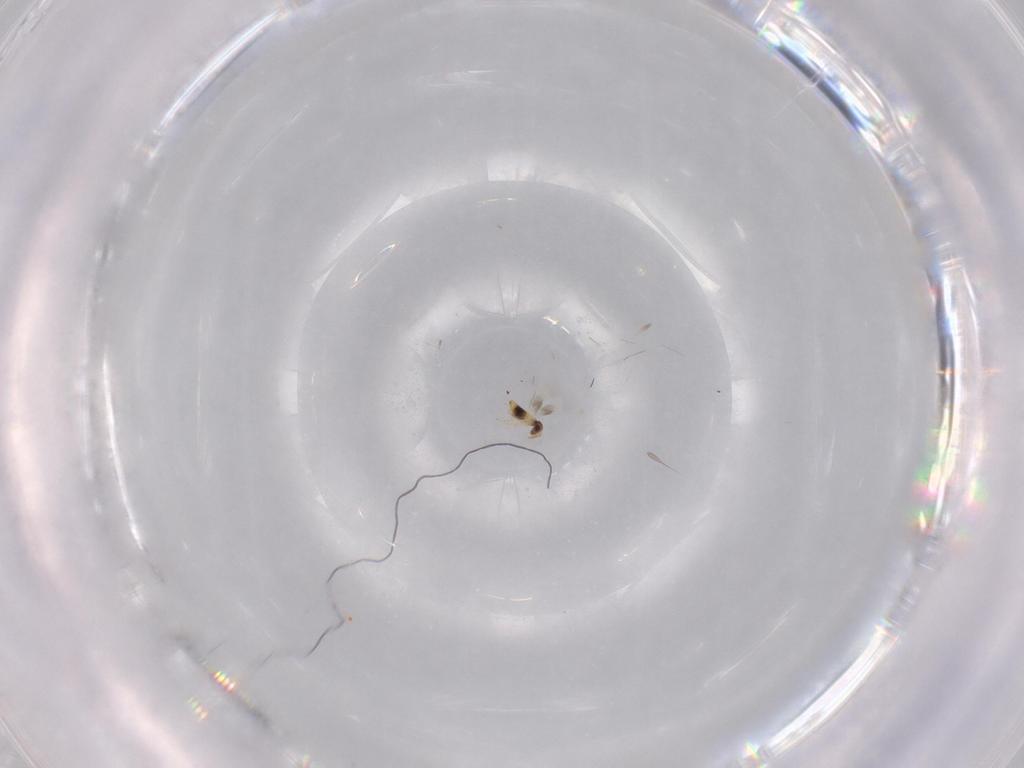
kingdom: Animalia
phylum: Arthropoda
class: Insecta
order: Hymenoptera
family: Signiphoridae
